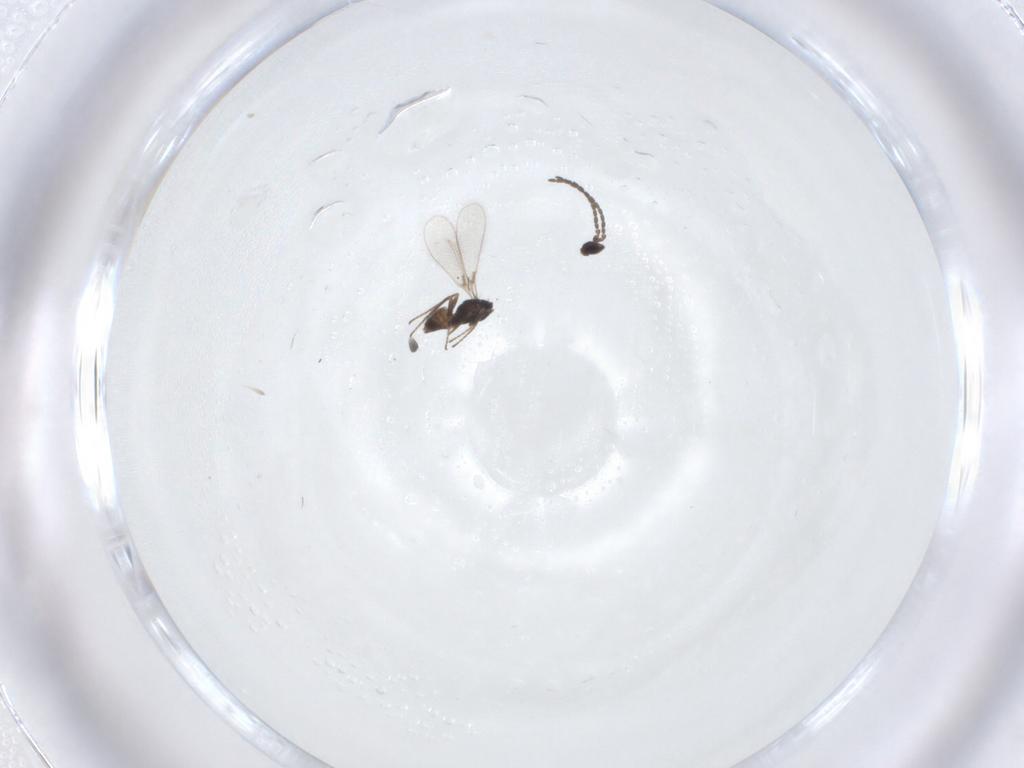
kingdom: Animalia
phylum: Arthropoda
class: Insecta
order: Hymenoptera
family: Mymaridae
